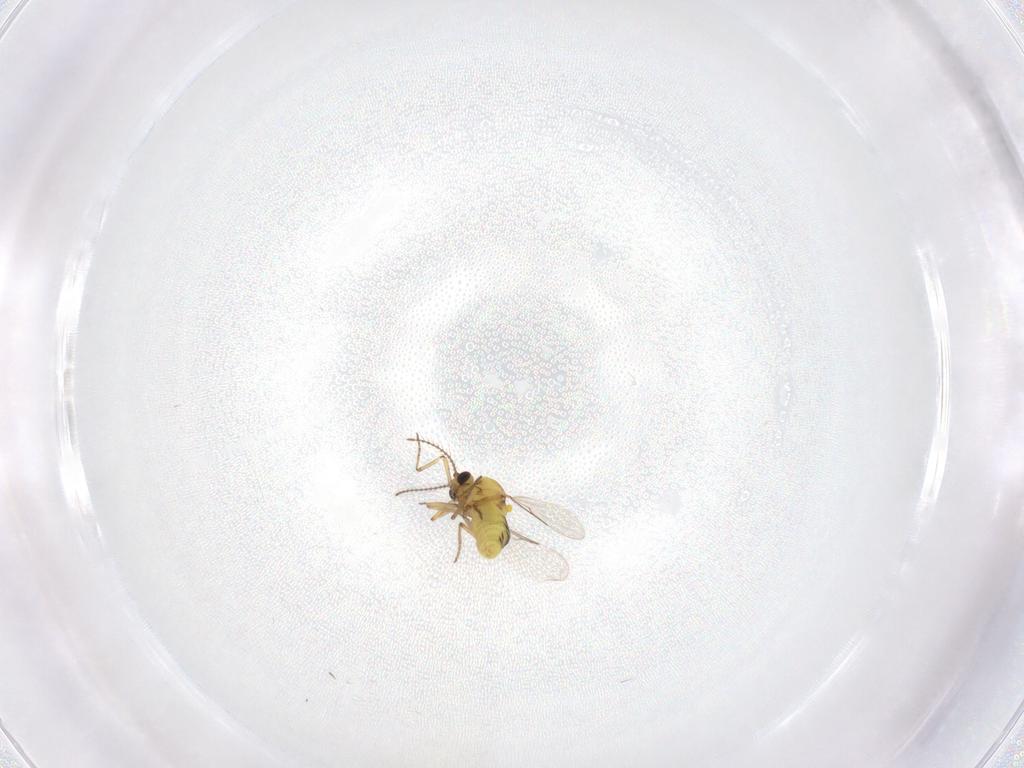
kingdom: Animalia
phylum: Arthropoda
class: Insecta
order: Diptera
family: Ceratopogonidae
